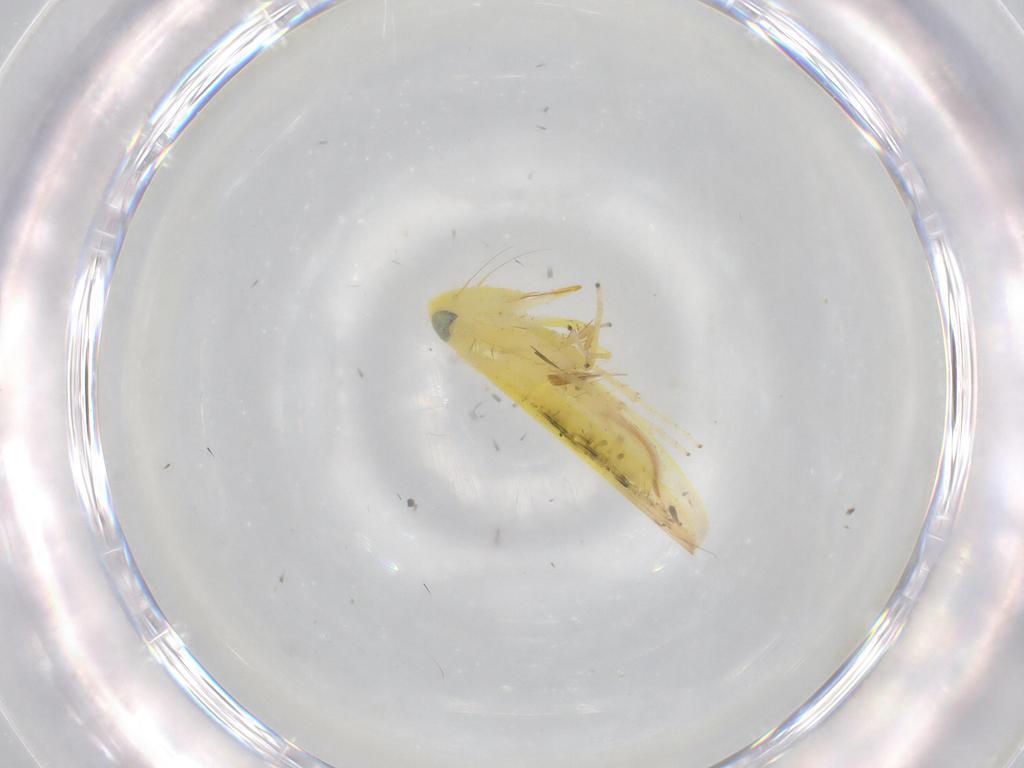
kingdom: Animalia
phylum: Arthropoda
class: Insecta
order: Hemiptera
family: Cicadellidae
